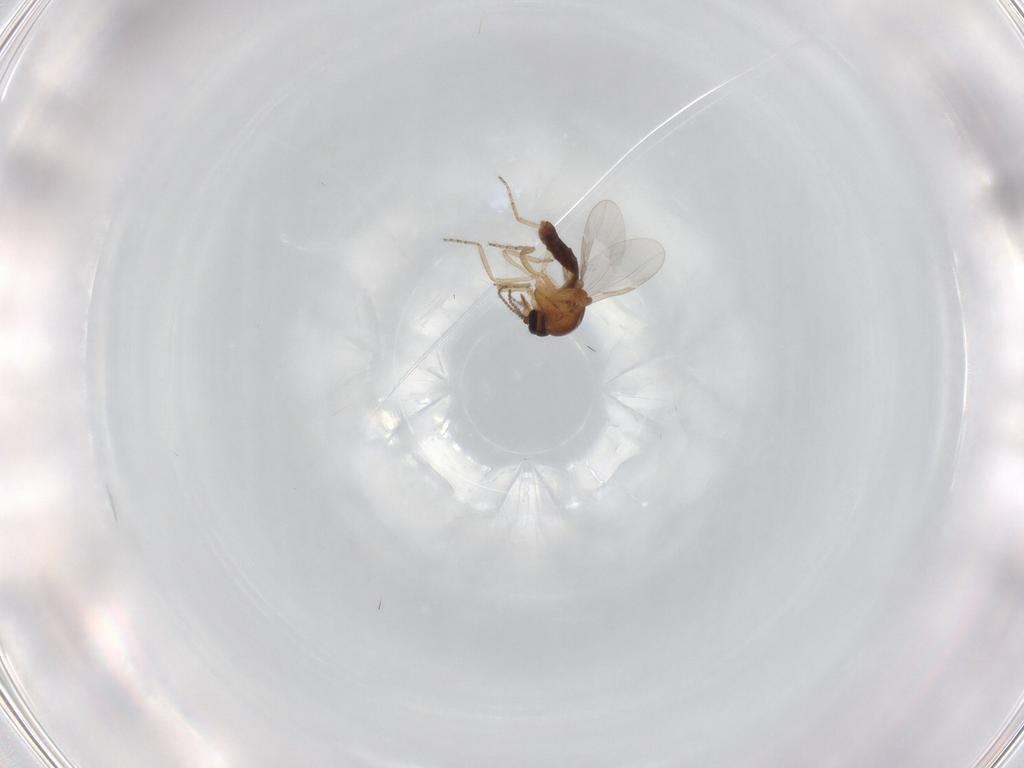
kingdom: Animalia
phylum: Arthropoda
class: Insecta
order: Diptera
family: Ceratopogonidae
